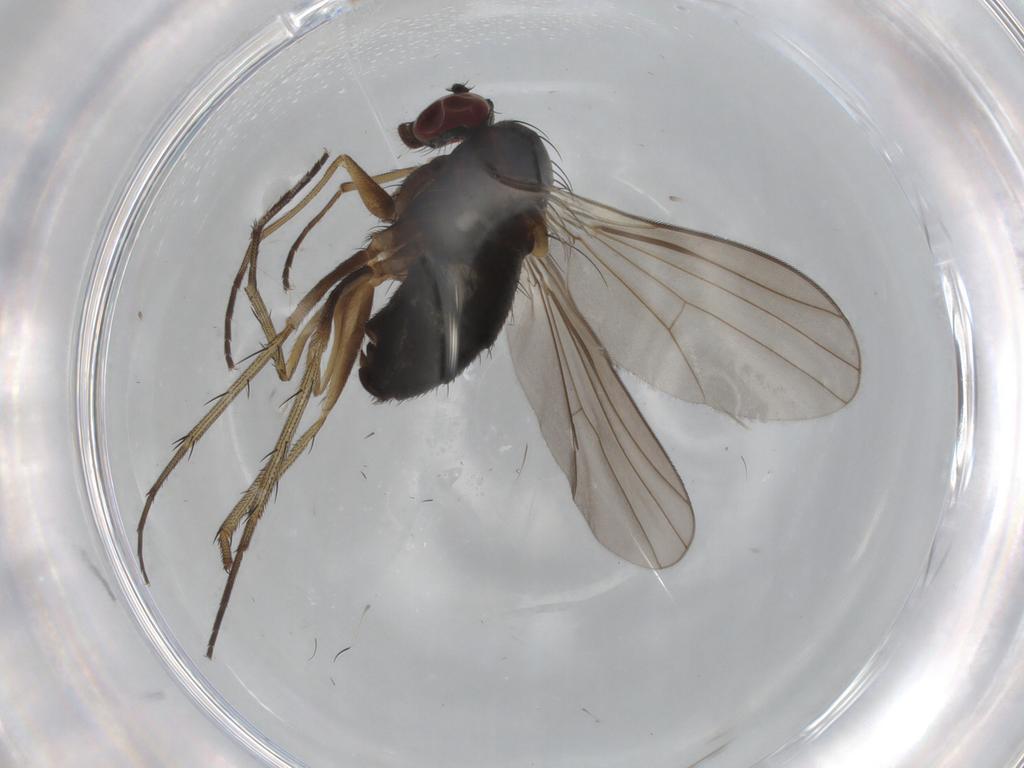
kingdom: Animalia
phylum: Arthropoda
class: Insecta
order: Diptera
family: Dolichopodidae
